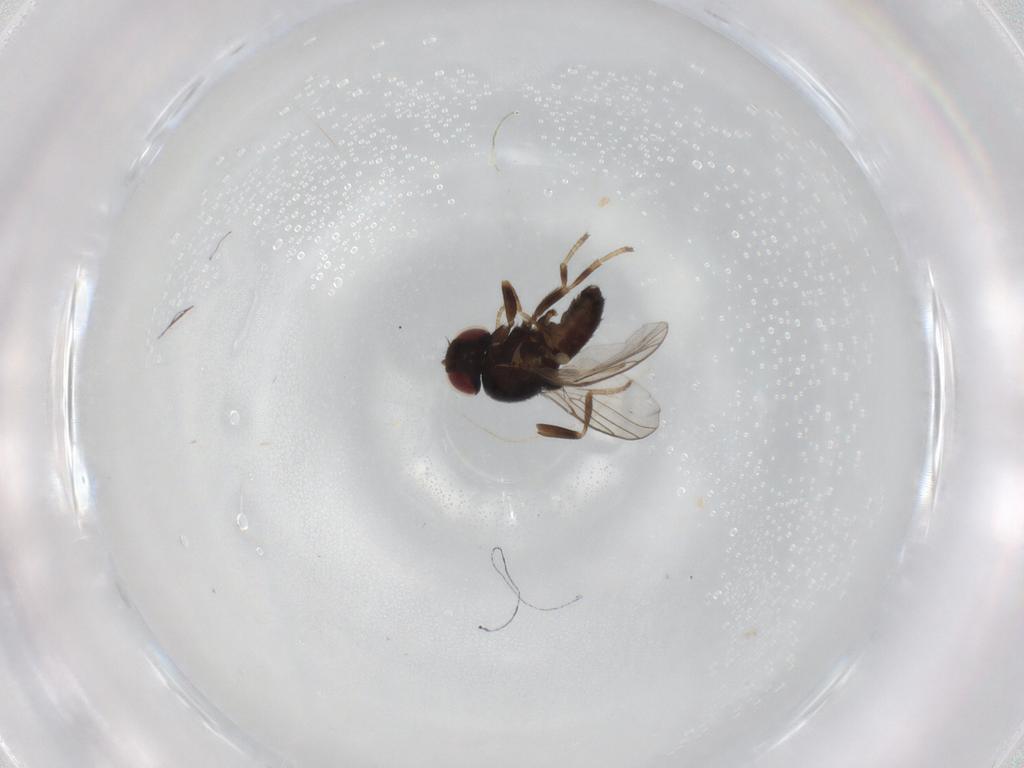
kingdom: Animalia
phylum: Arthropoda
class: Insecta
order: Diptera
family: Chloropidae
